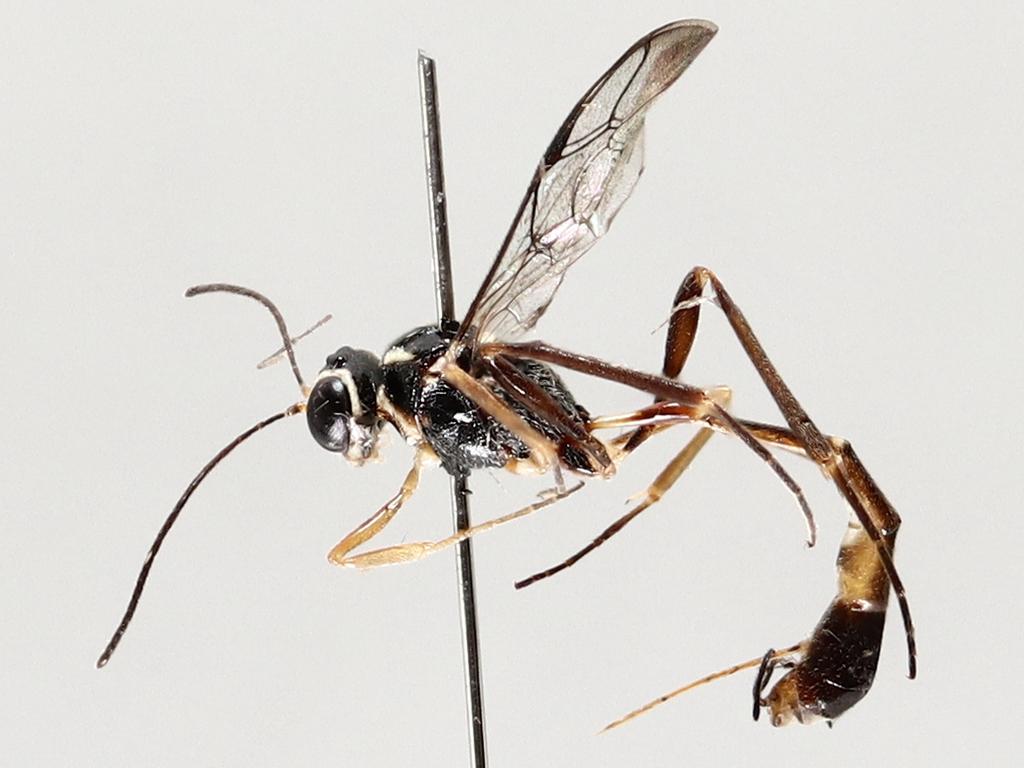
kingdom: Animalia
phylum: Arthropoda
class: Insecta
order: Diptera
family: Limoniidae
